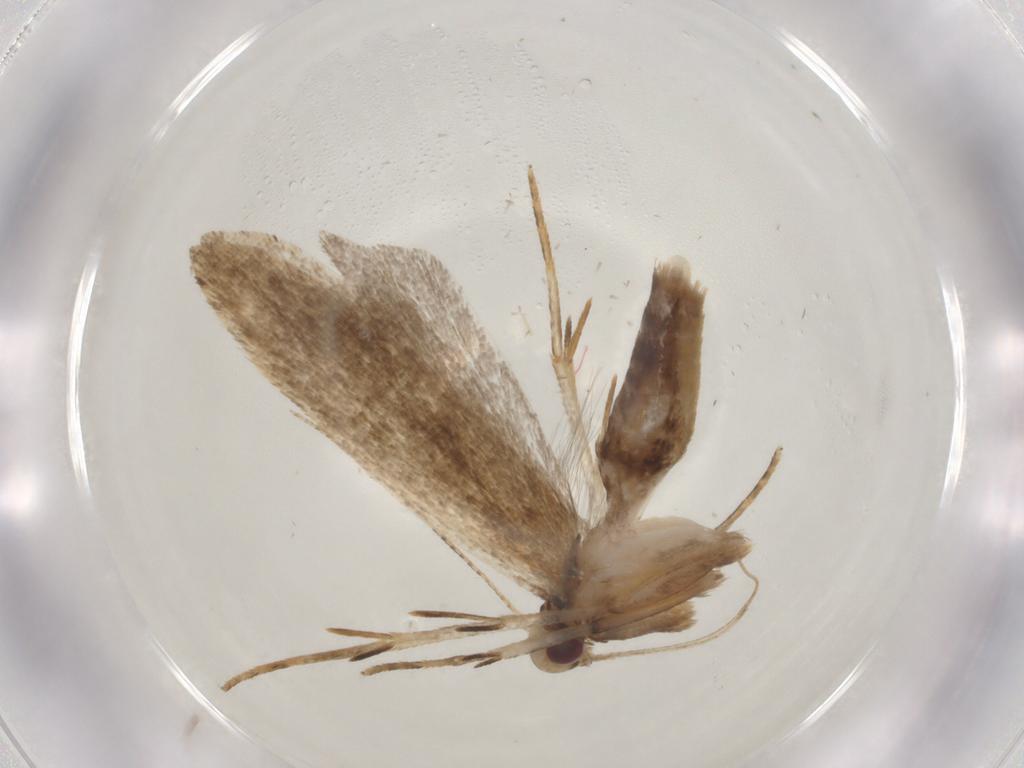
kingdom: Animalia
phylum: Arthropoda
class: Insecta
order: Lepidoptera
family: Gelechiidae
